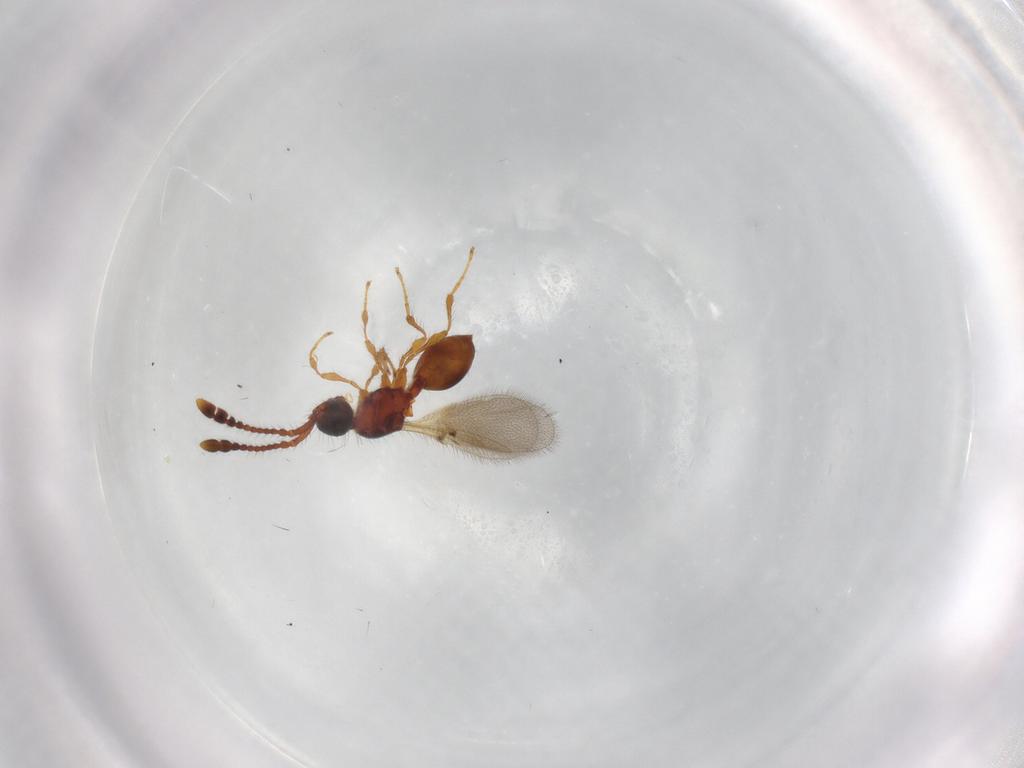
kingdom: Animalia
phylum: Arthropoda
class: Insecta
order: Hymenoptera
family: Diapriidae
